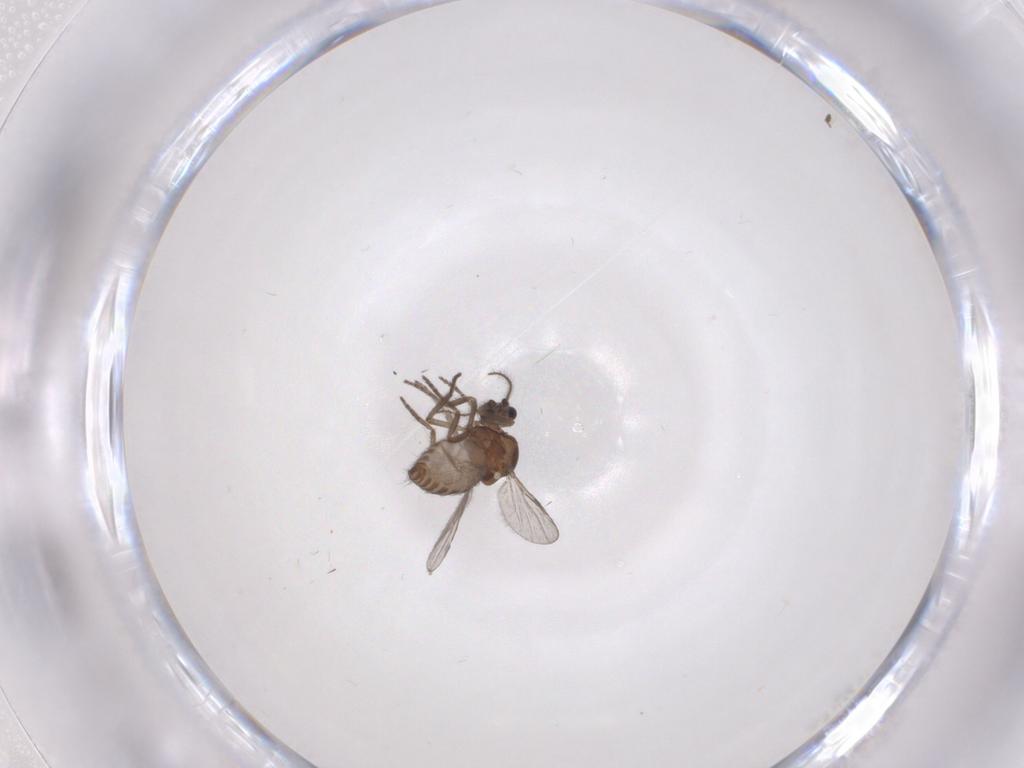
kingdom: Animalia
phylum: Arthropoda
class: Insecta
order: Diptera
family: Ceratopogonidae
